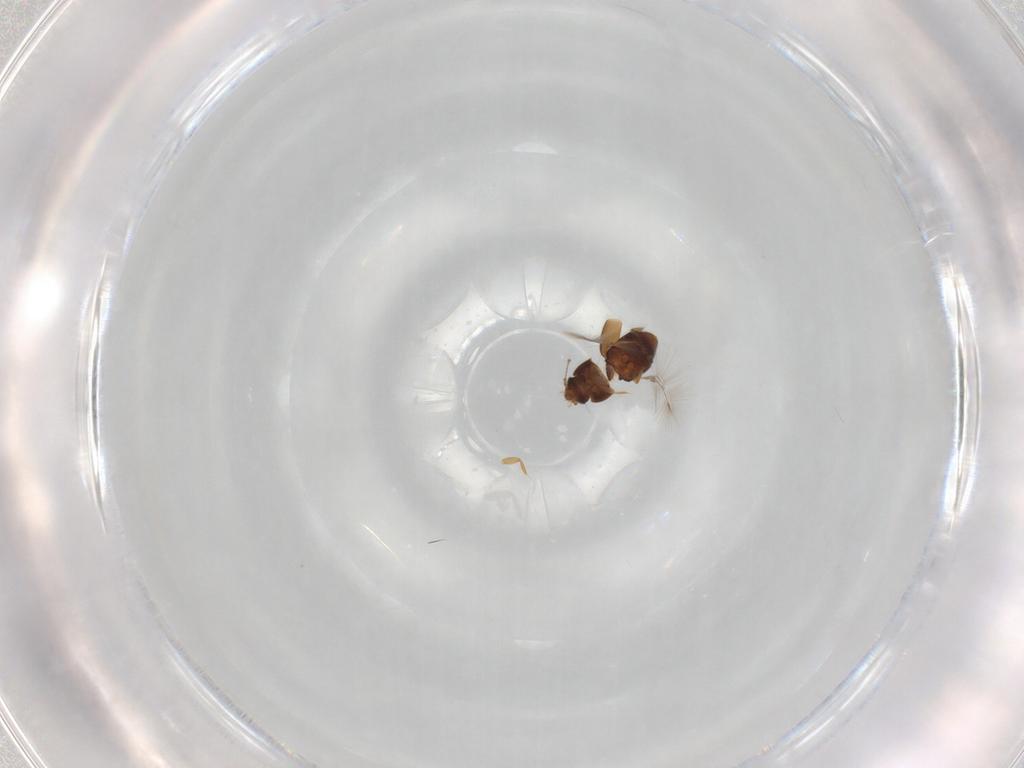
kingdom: Animalia
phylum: Arthropoda
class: Insecta
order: Coleoptera
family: Ptiliidae
